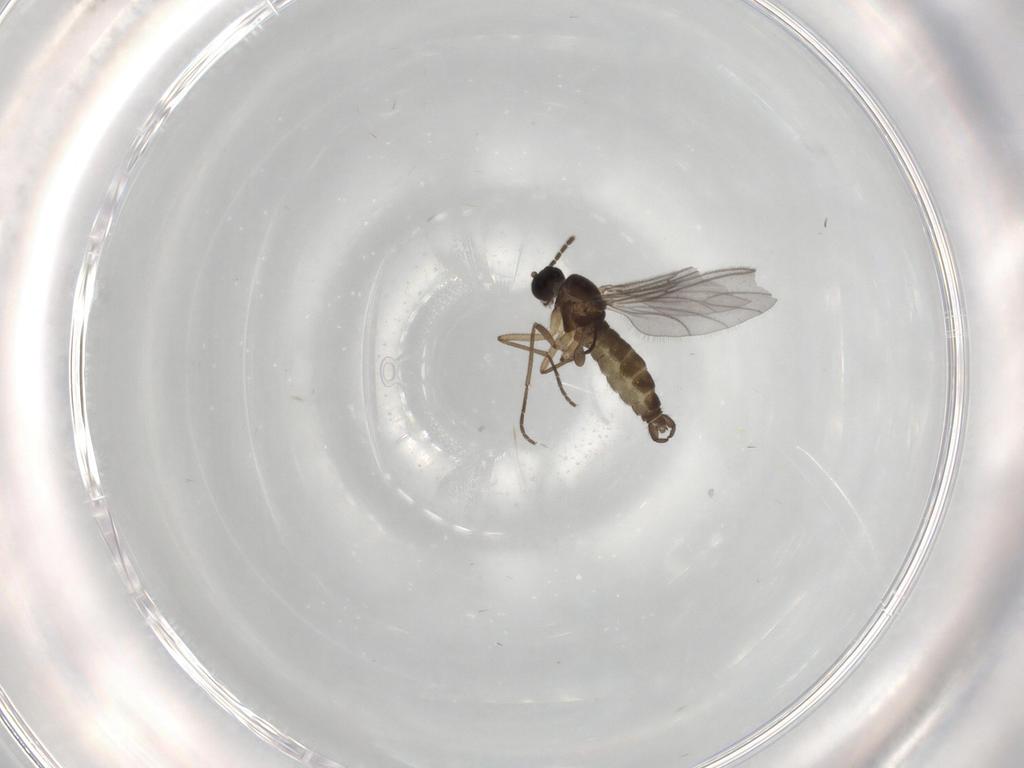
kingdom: Animalia
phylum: Arthropoda
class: Insecta
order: Diptera
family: Sciaridae
